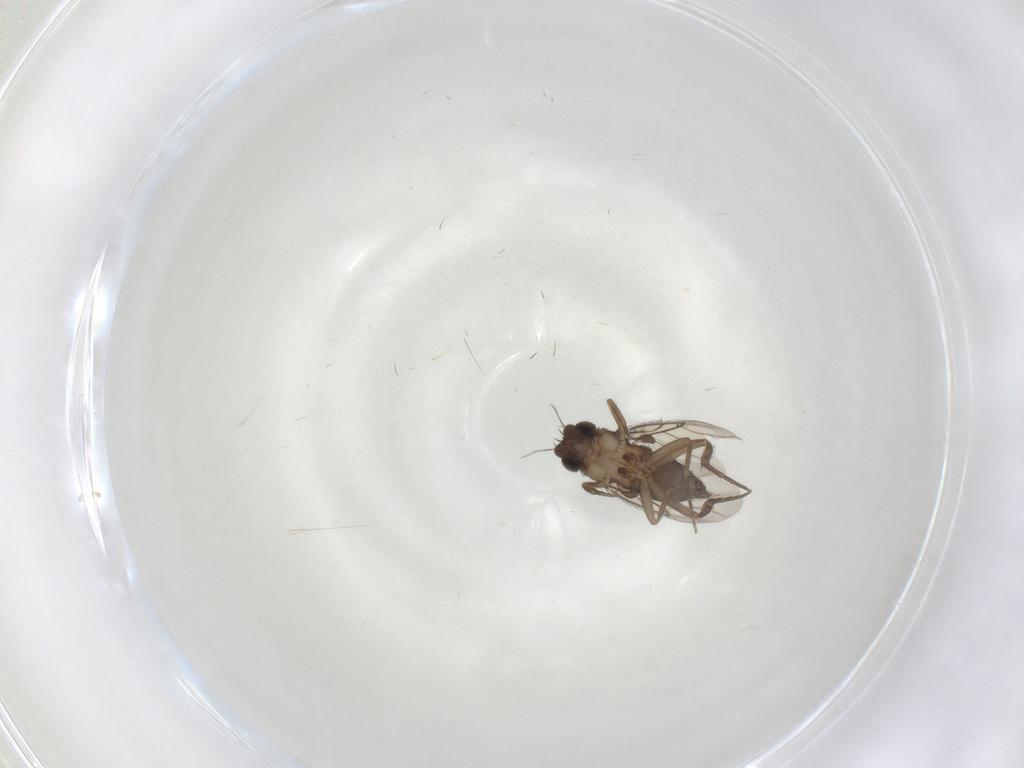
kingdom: Animalia
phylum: Arthropoda
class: Insecta
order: Diptera
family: Phoridae
